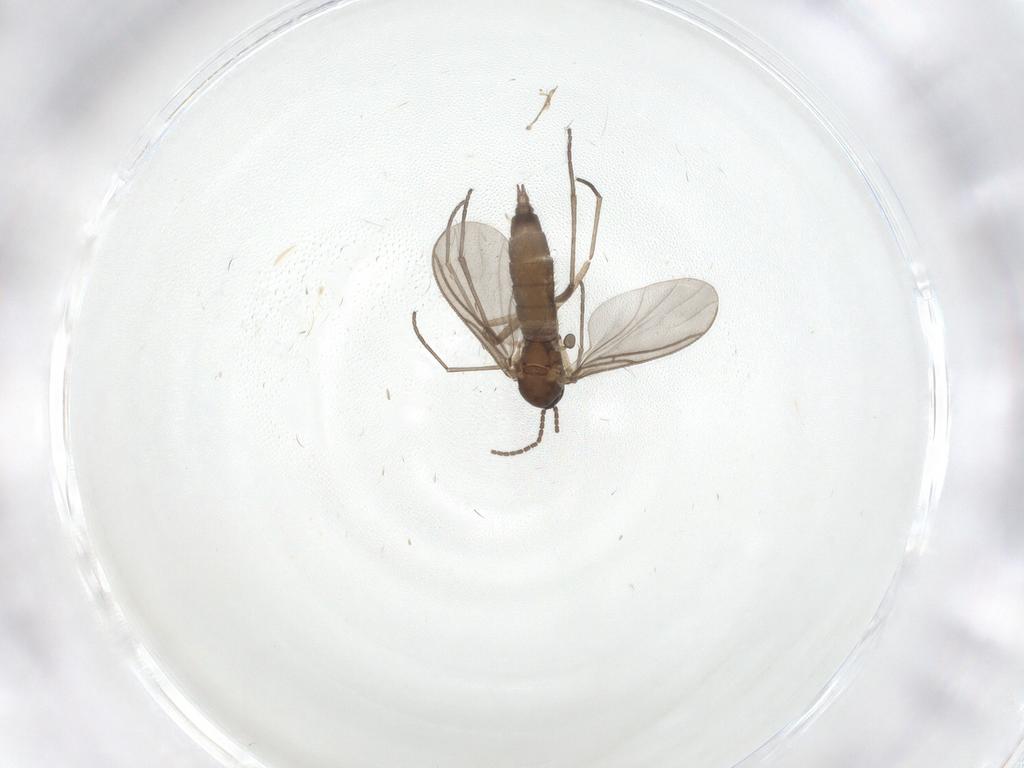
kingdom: Animalia
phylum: Arthropoda
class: Insecta
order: Diptera
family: Sciaridae
